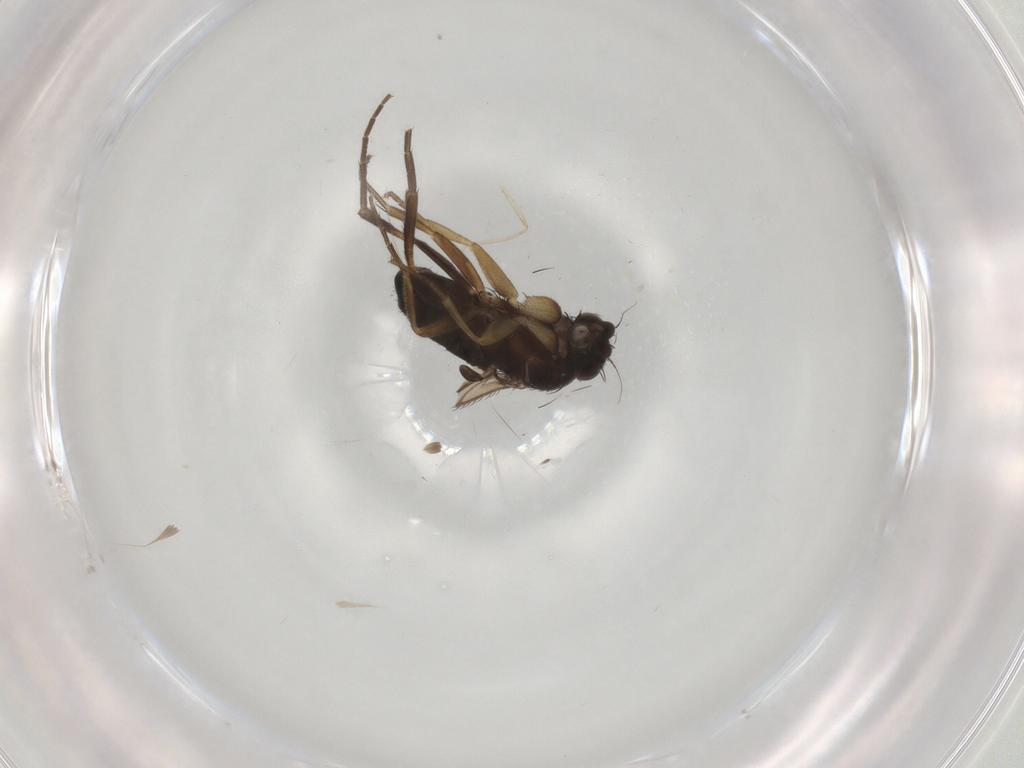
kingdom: Animalia
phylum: Arthropoda
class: Insecta
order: Diptera
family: Phoridae
